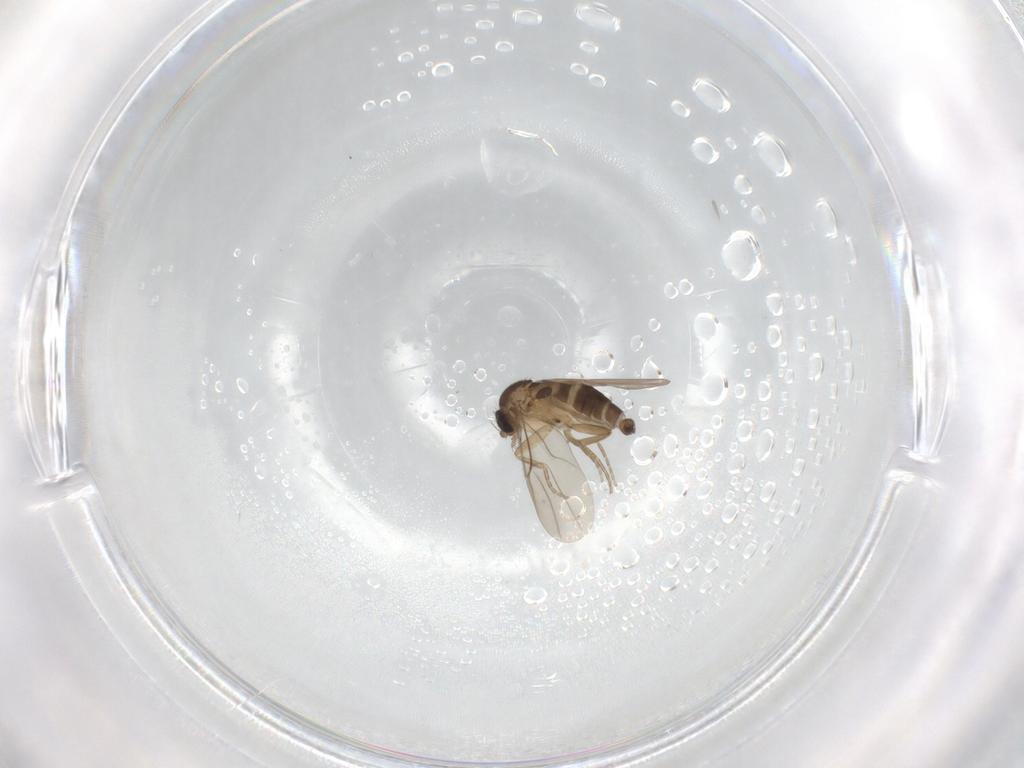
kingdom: Animalia
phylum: Arthropoda
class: Insecta
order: Diptera
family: Phoridae
